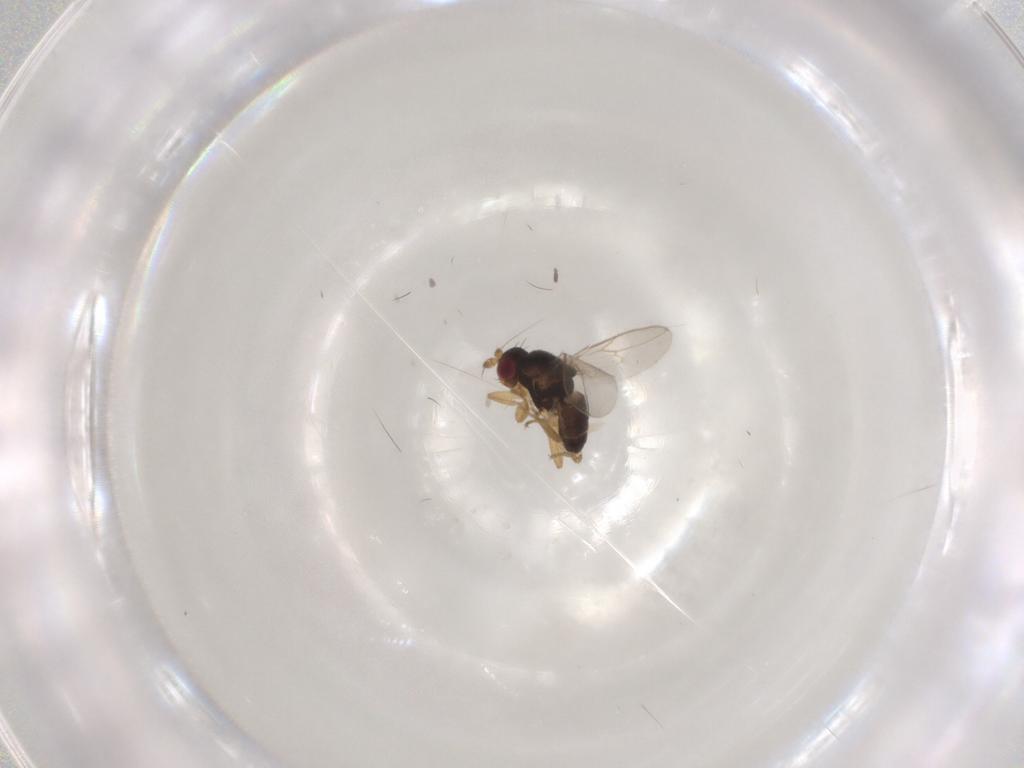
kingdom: Animalia
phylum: Arthropoda
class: Insecta
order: Diptera
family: Sphaeroceridae
